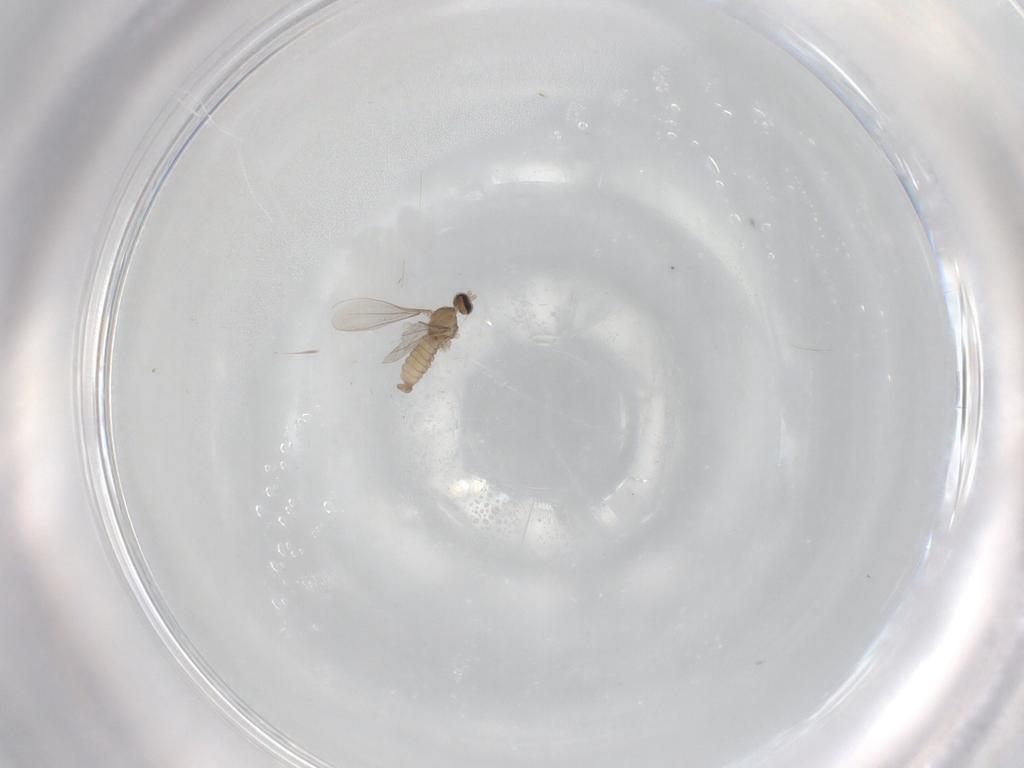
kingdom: Animalia
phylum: Arthropoda
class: Insecta
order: Diptera
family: Cecidomyiidae
